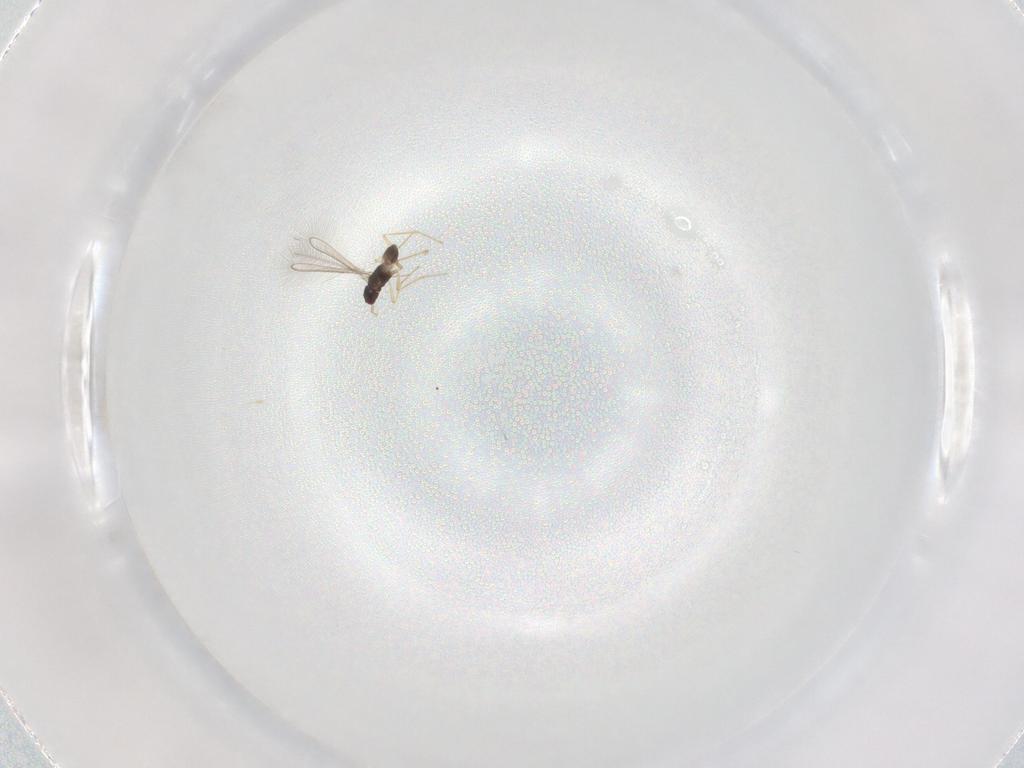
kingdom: Animalia
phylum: Arthropoda
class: Insecta
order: Hymenoptera
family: Mymaridae
